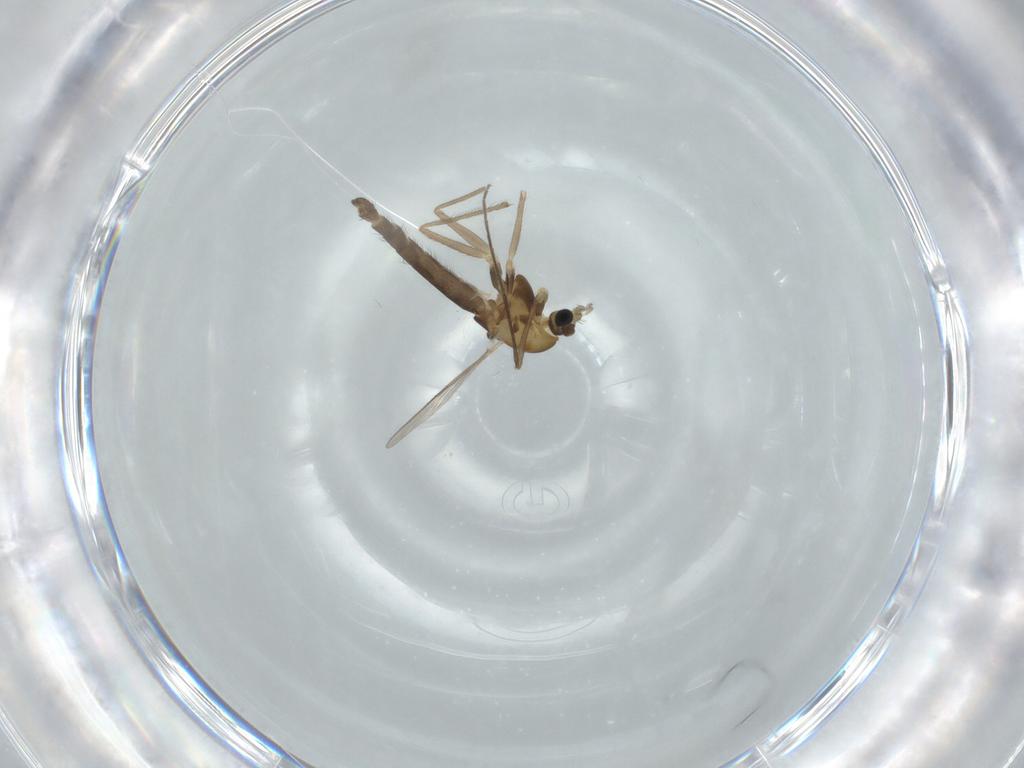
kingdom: Animalia
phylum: Arthropoda
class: Insecta
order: Diptera
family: Chironomidae
